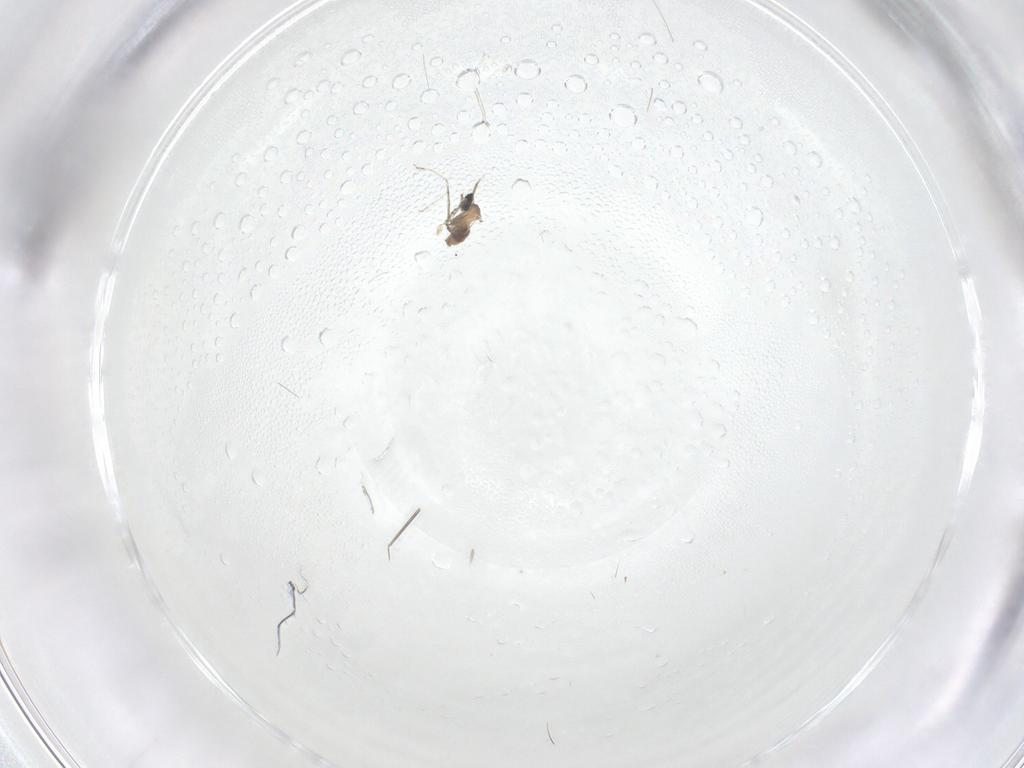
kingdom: Animalia
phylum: Arthropoda
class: Insecta
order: Diptera
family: Cecidomyiidae
